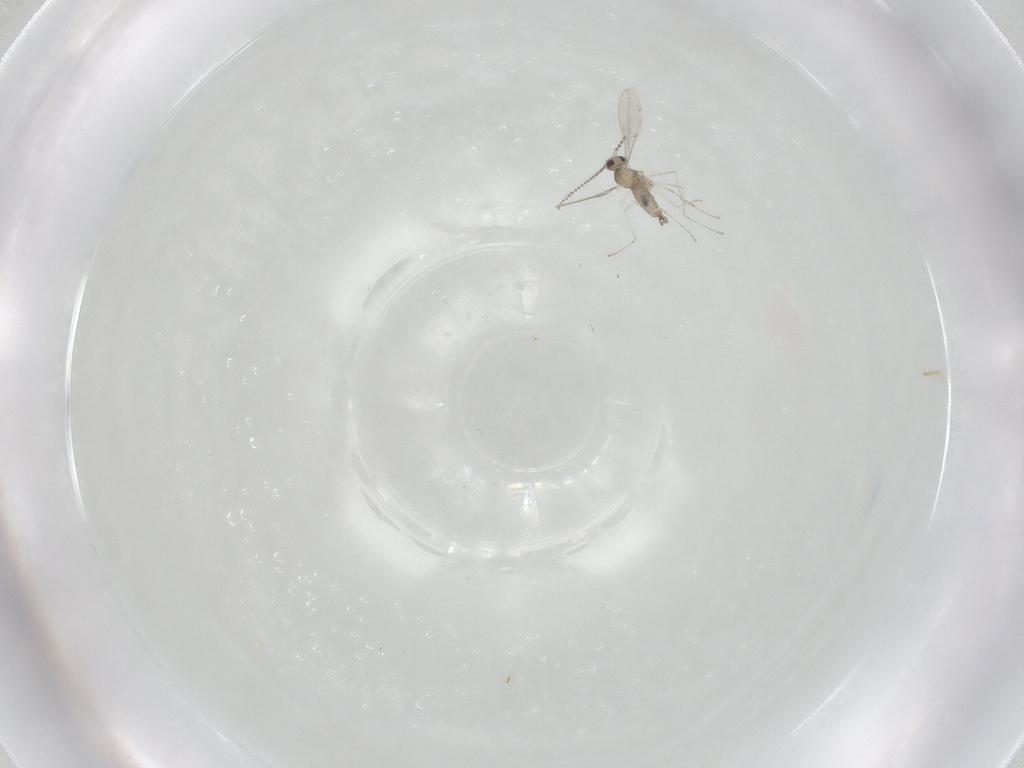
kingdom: Animalia
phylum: Arthropoda
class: Insecta
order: Diptera
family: Cecidomyiidae
